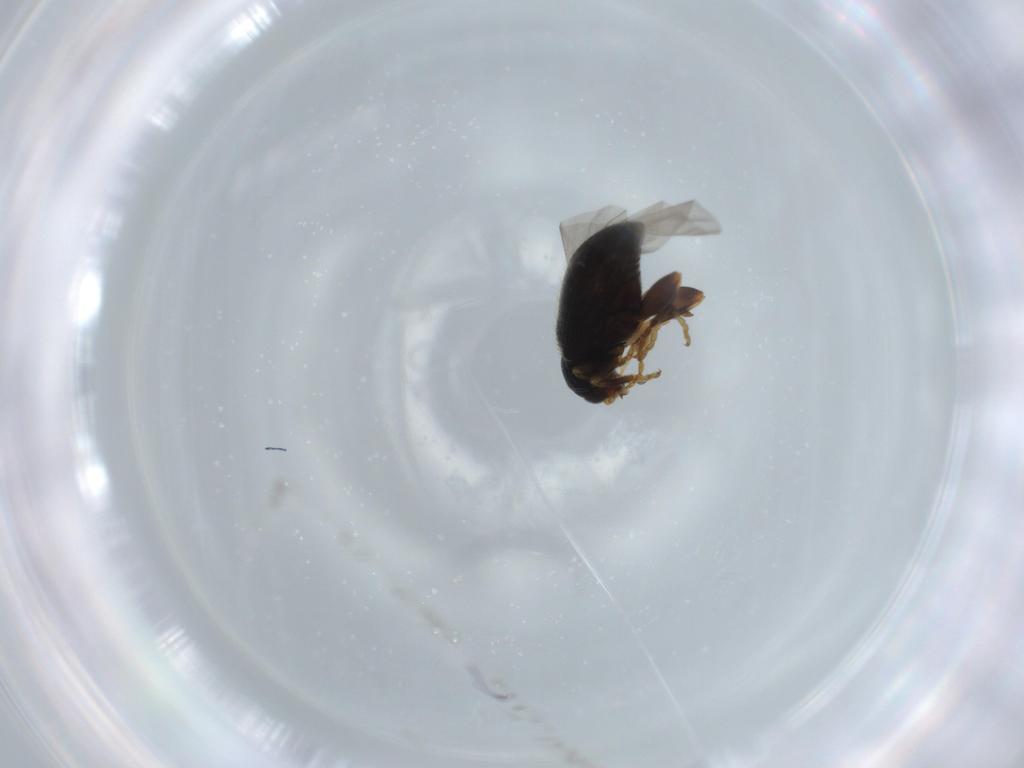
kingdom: Animalia
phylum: Arthropoda
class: Insecta
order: Coleoptera
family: Chrysomelidae
